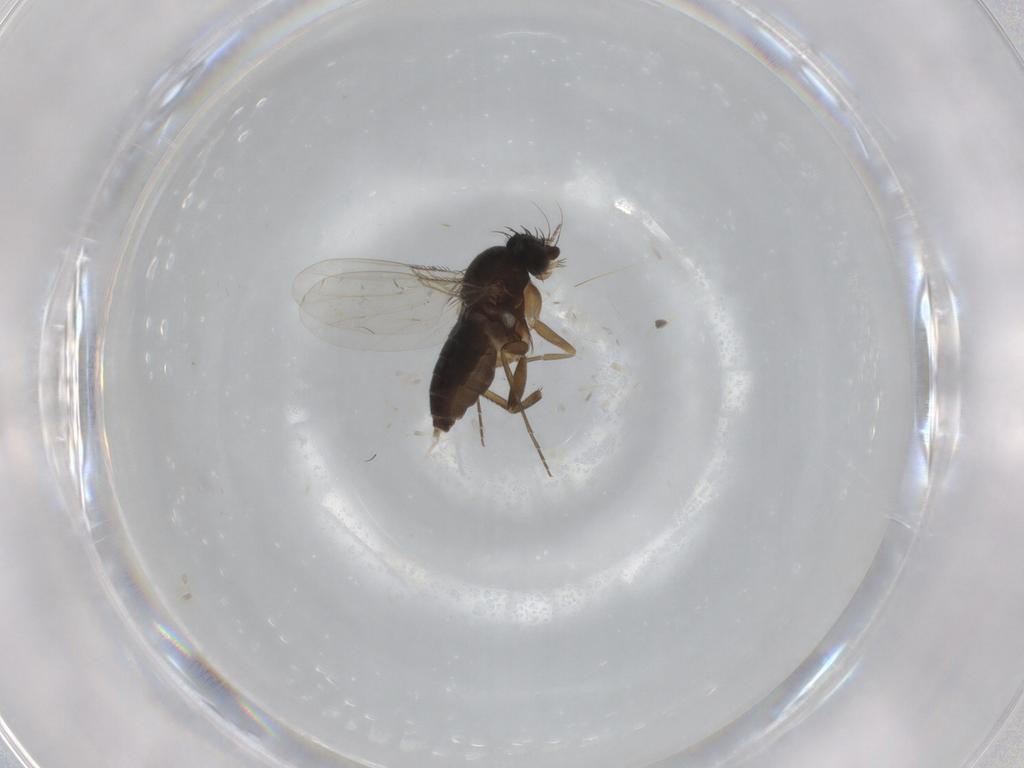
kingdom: Animalia
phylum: Arthropoda
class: Insecta
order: Diptera
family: Phoridae
